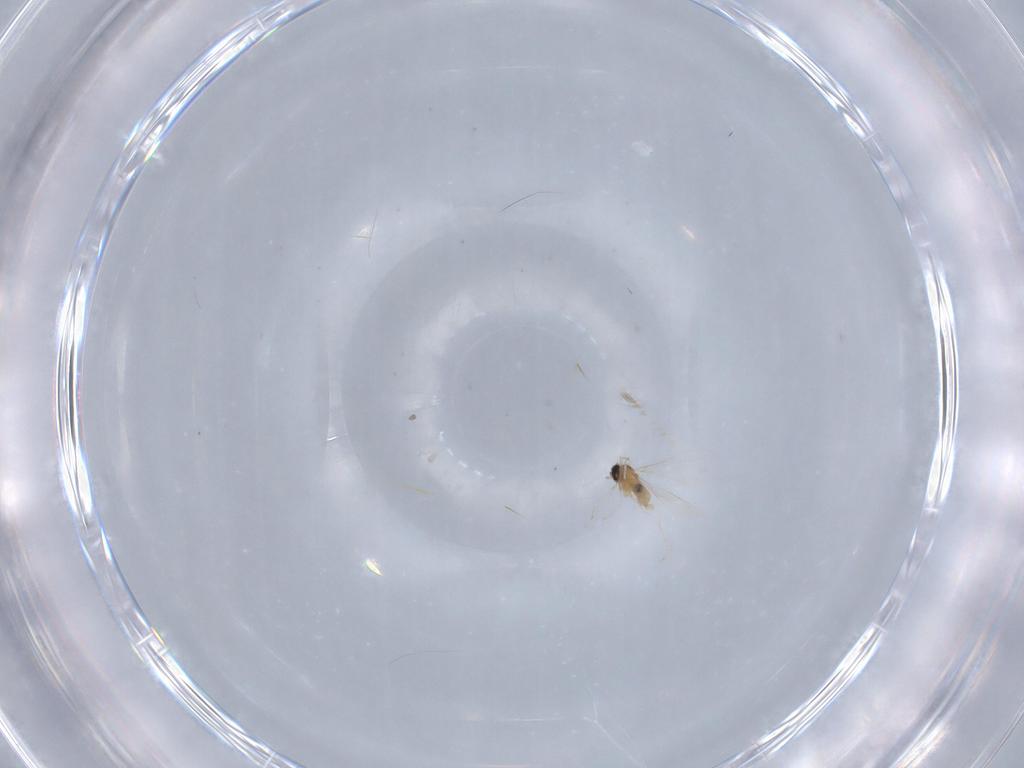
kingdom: Animalia
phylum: Arthropoda
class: Insecta
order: Diptera
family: Cecidomyiidae
